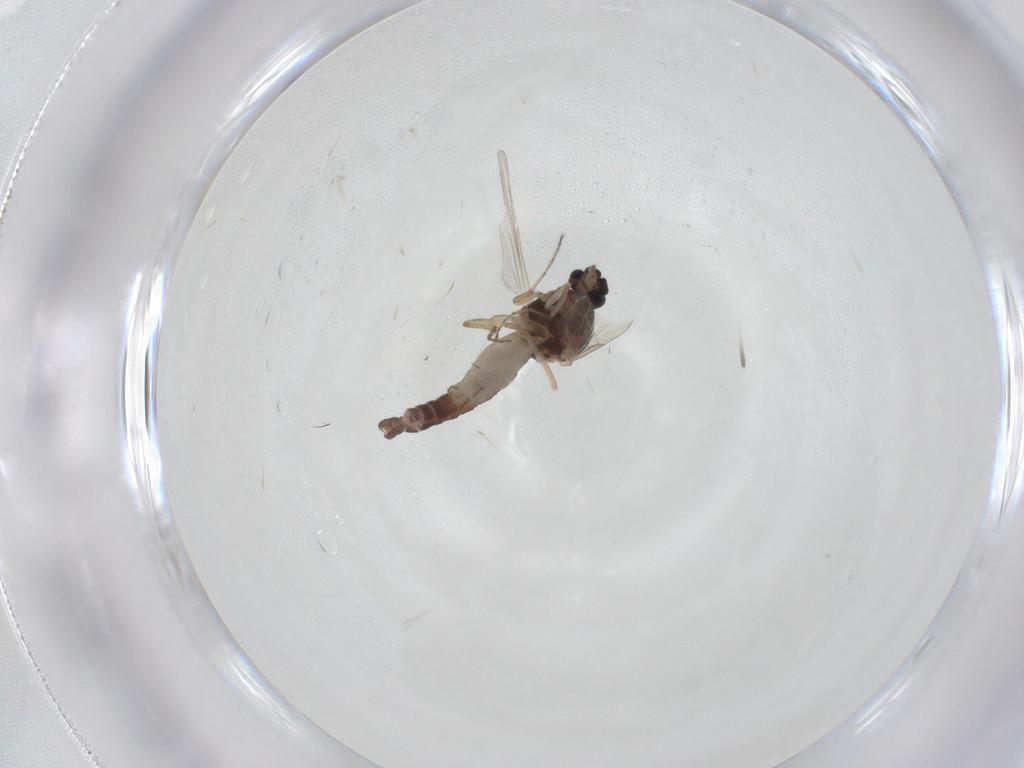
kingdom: Animalia
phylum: Arthropoda
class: Insecta
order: Diptera
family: Ceratopogonidae
